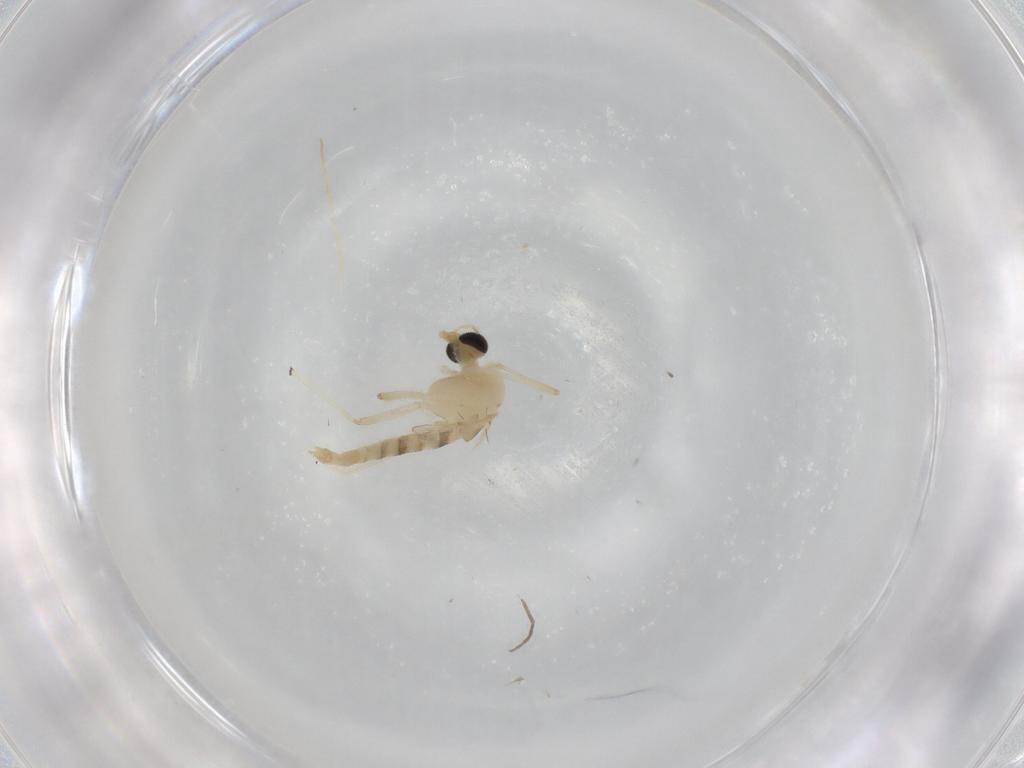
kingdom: Animalia
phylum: Arthropoda
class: Insecta
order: Diptera
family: Chironomidae
